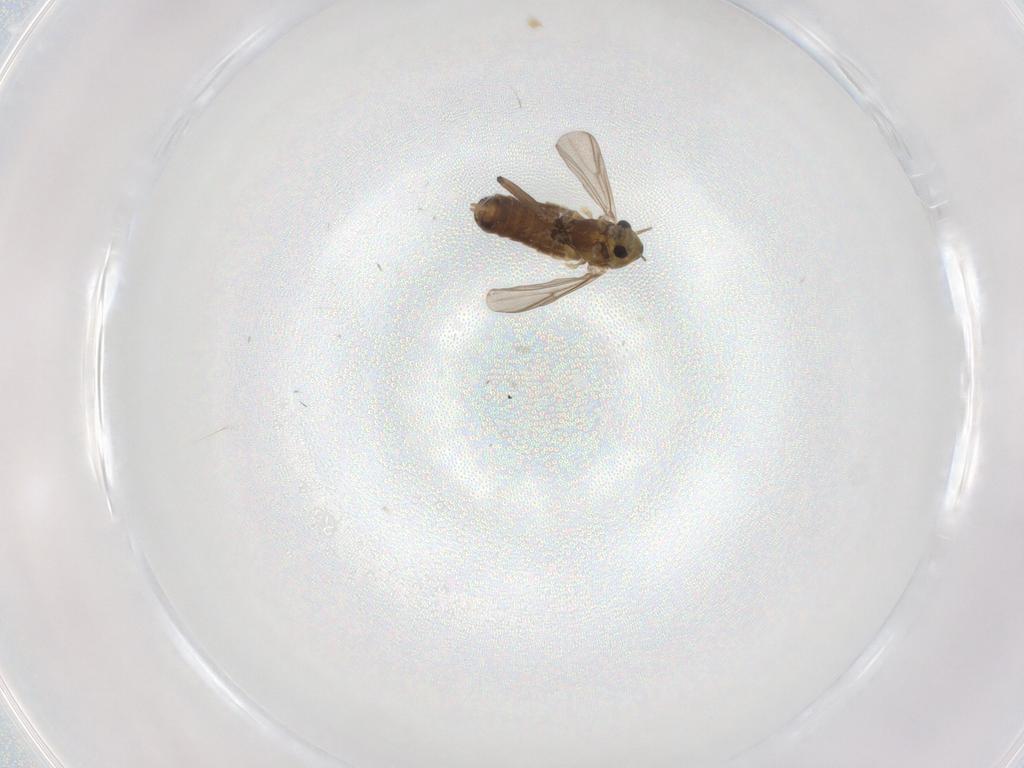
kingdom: Animalia
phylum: Arthropoda
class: Insecta
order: Diptera
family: Chironomidae
